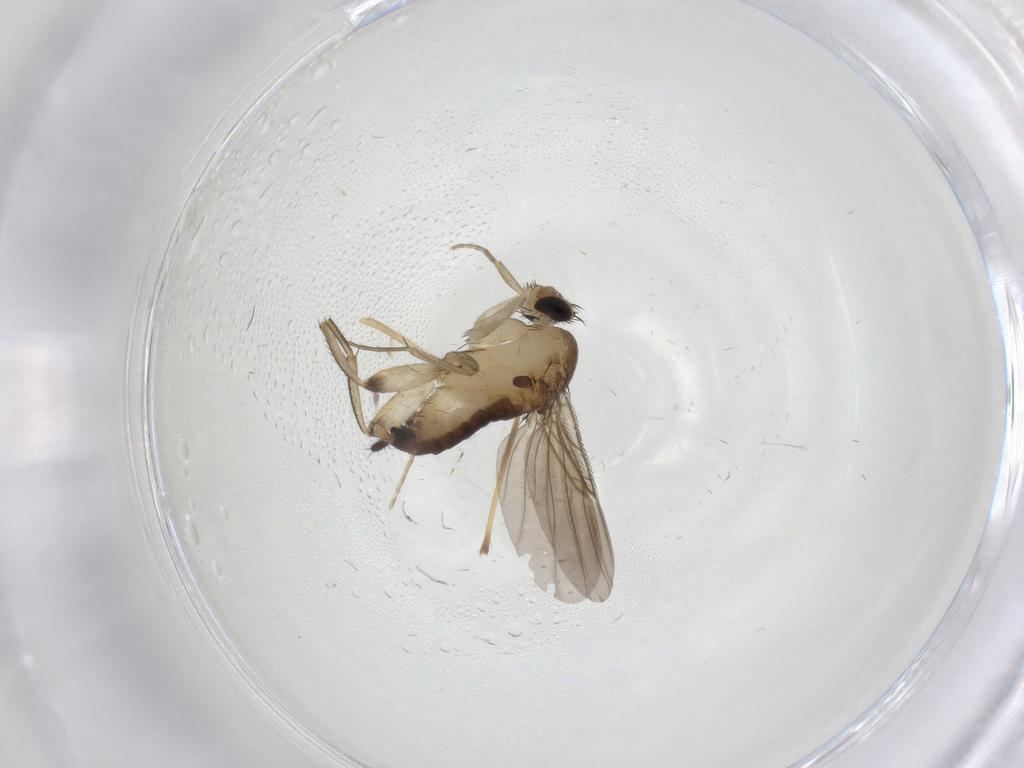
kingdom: Animalia
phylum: Arthropoda
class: Insecta
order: Diptera
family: Phoridae
